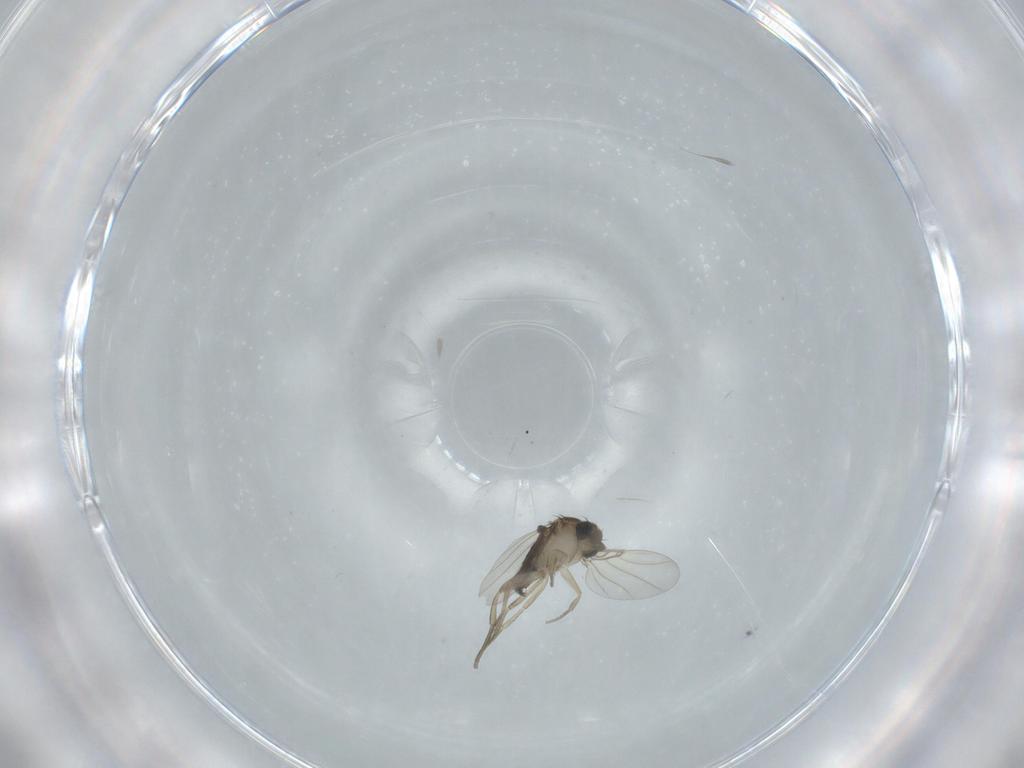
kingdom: Animalia
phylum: Arthropoda
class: Insecta
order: Diptera
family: Phoridae
